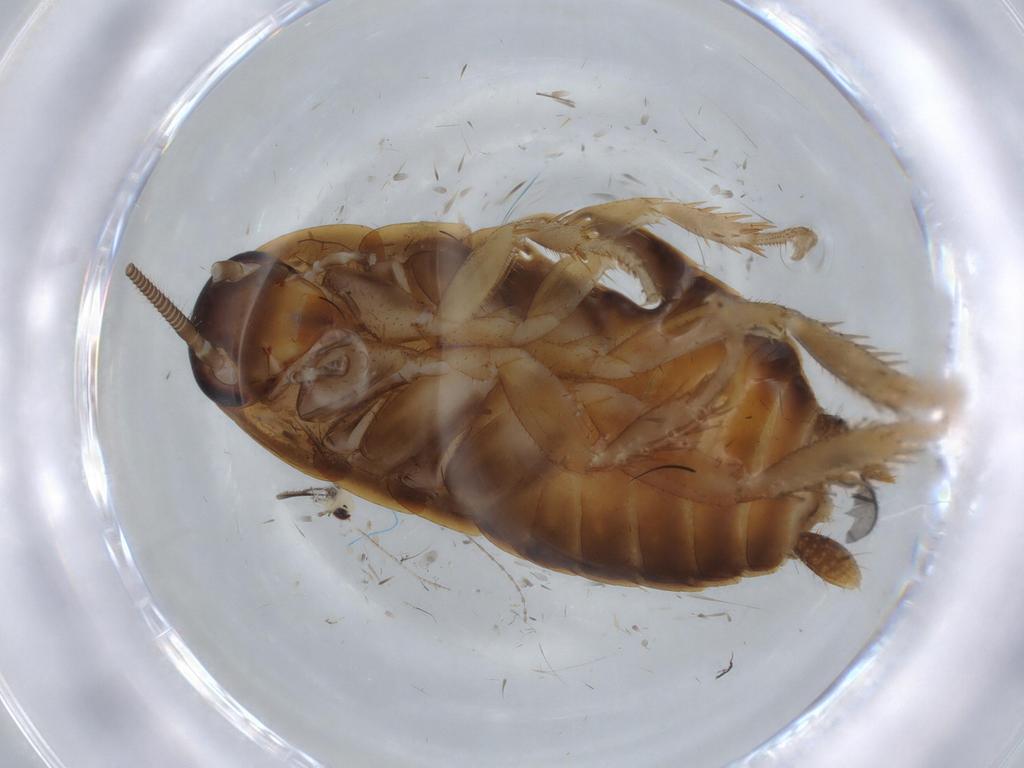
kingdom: Animalia
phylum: Arthropoda
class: Insecta
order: Blattodea
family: Blattidae
